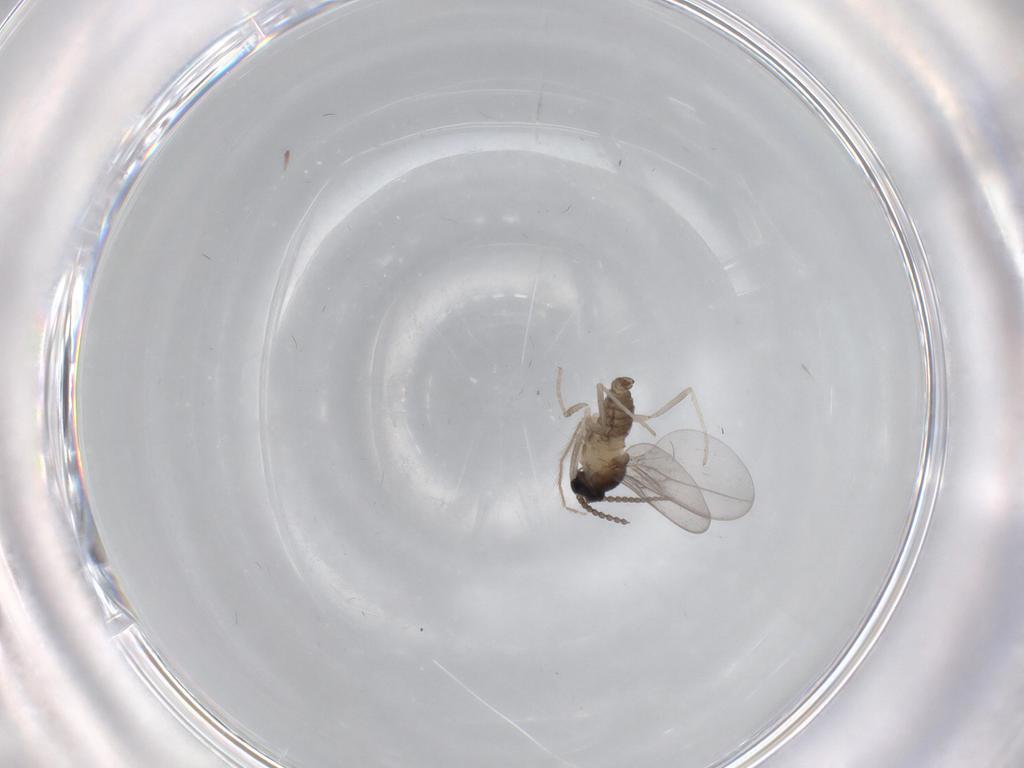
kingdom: Animalia
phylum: Arthropoda
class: Insecta
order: Diptera
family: Cecidomyiidae
